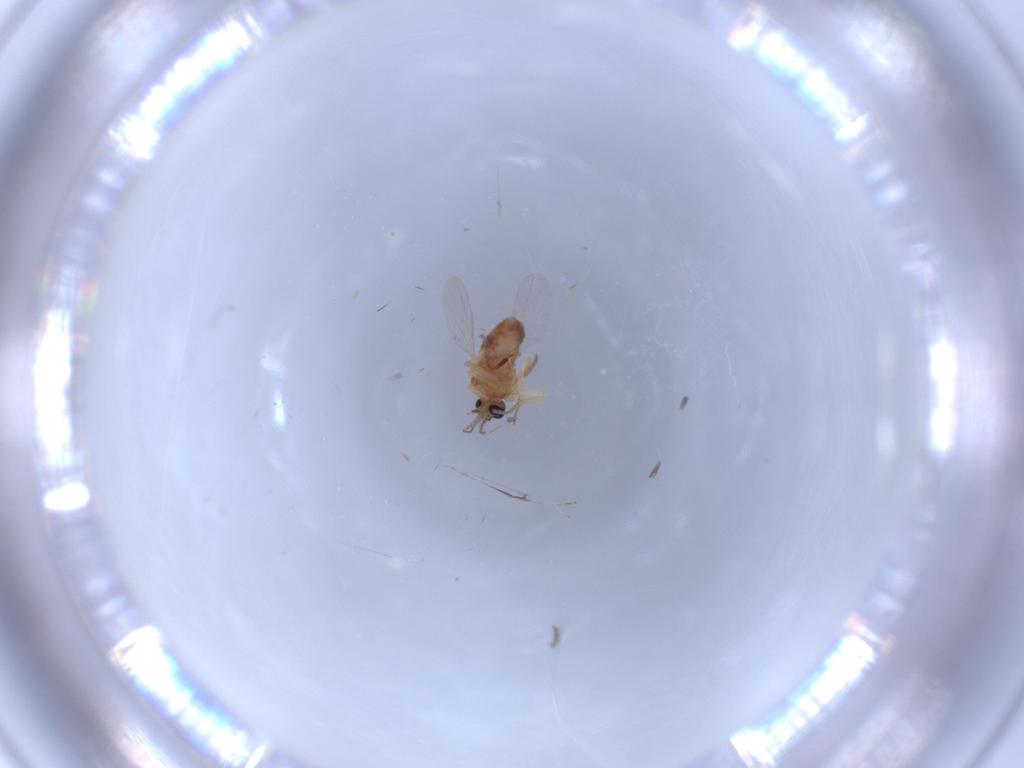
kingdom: Animalia
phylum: Arthropoda
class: Insecta
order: Diptera
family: Ceratopogonidae
